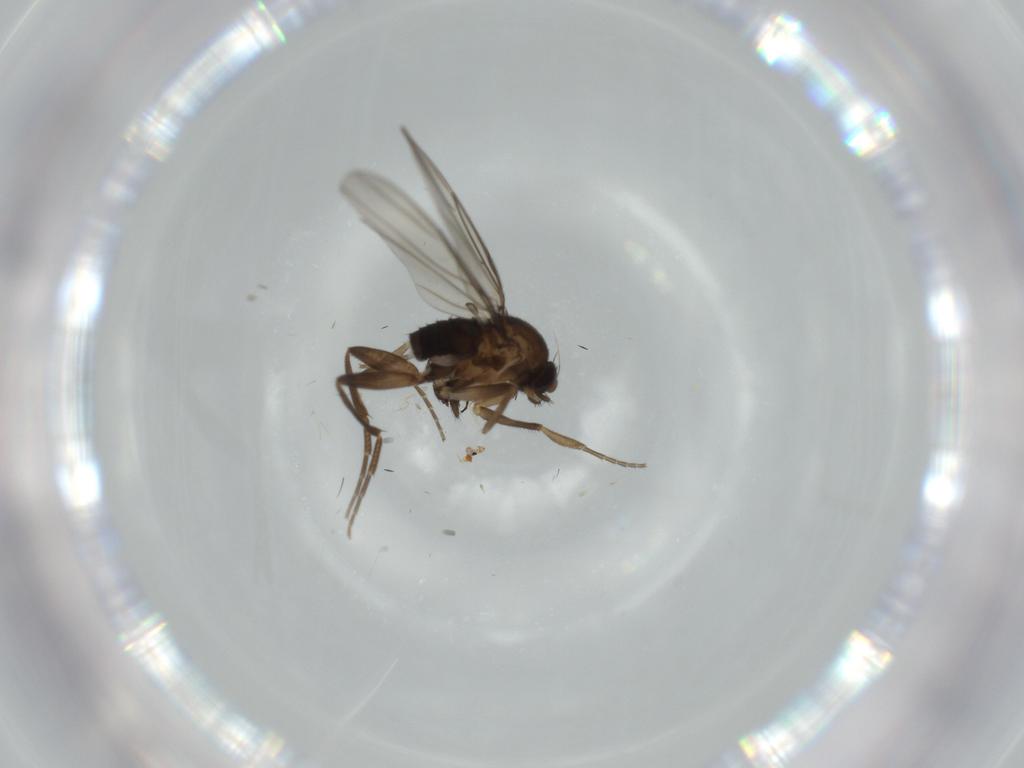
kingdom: Animalia
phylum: Arthropoda
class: Insecta
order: Diptera
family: Cecidomyiidae
